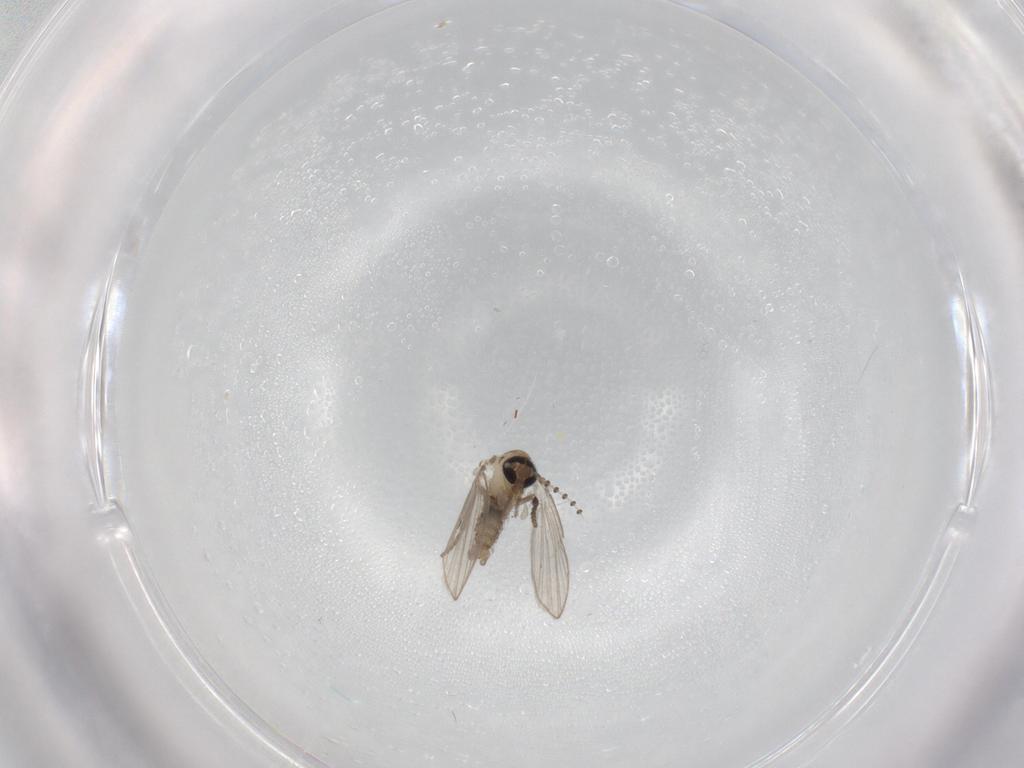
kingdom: Animalia
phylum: Arthropoda
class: Insecta
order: Diptera
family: Psychodidae
